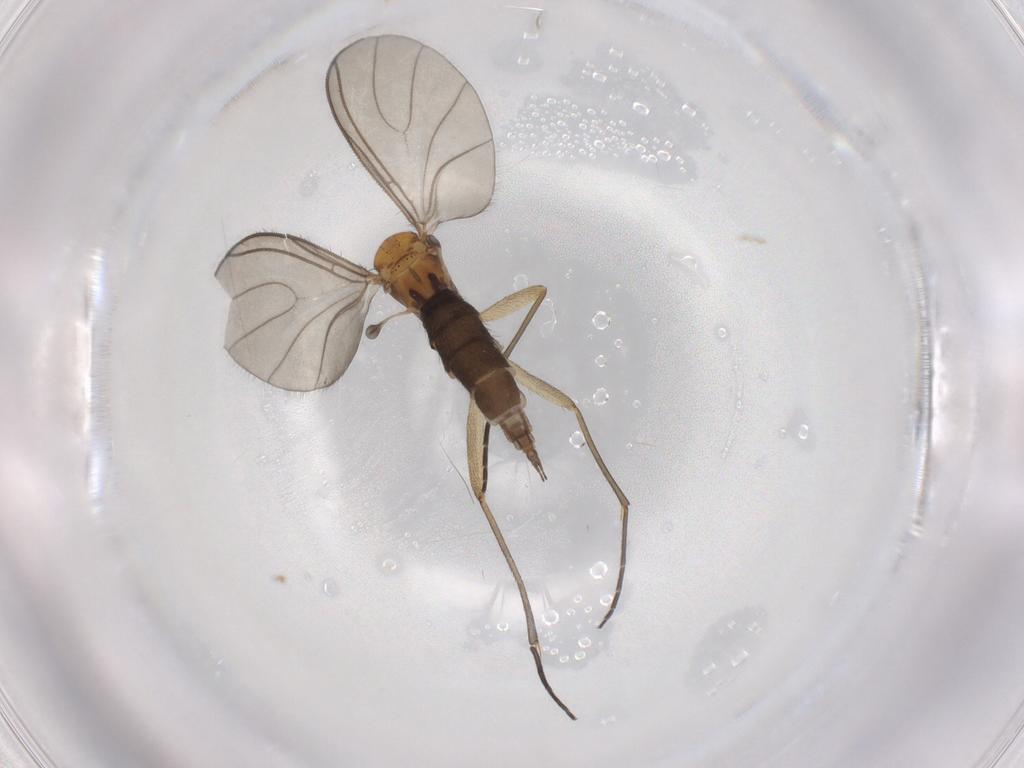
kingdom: Animalia
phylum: Arthropoda
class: Insecta
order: Diptera
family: Sciaridae
